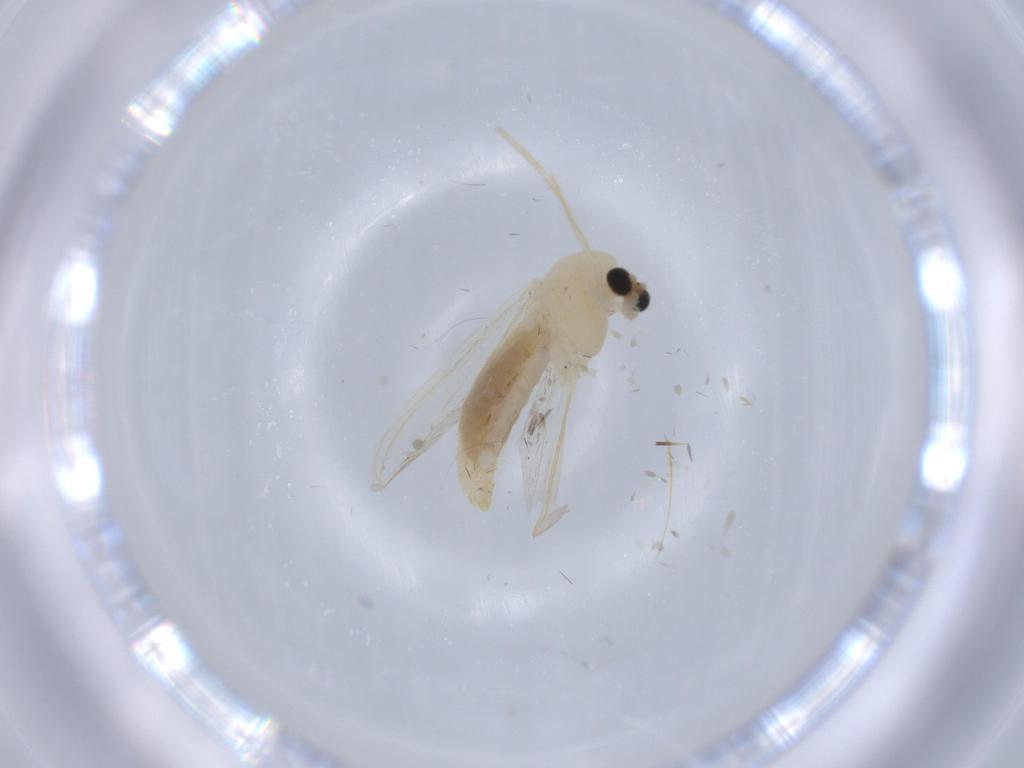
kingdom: Animalia
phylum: Arthropoda
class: Insecta
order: Diptera
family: Chironomidae
